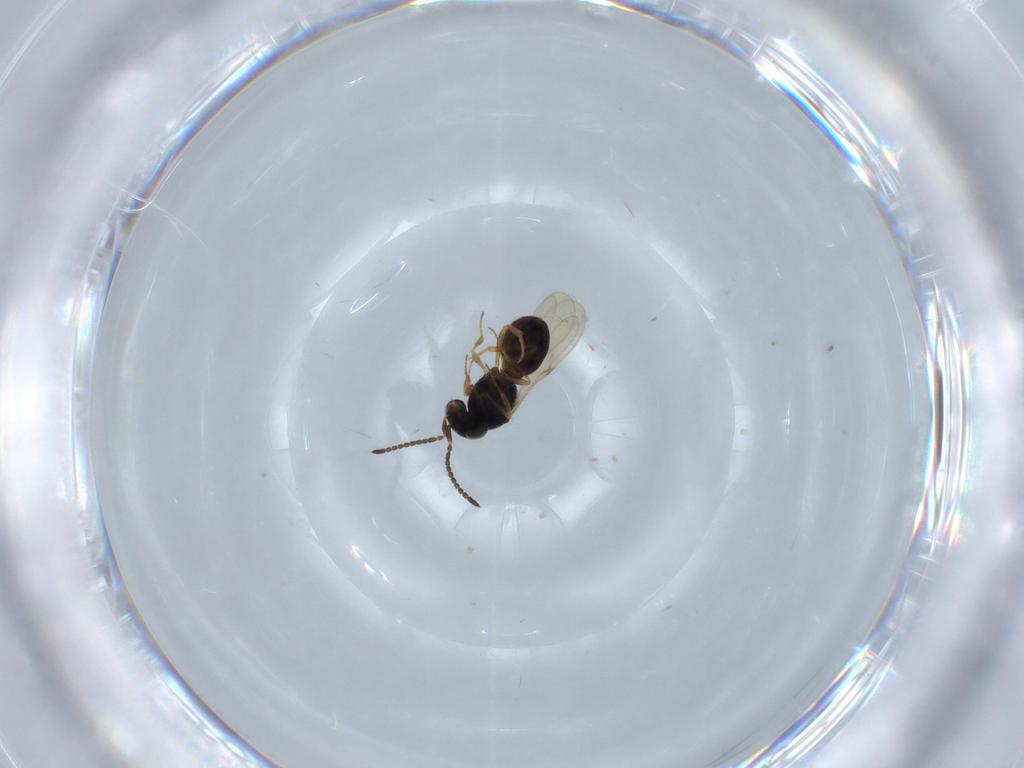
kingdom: Animalia
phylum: Arthropoda
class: Insecta
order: Hymenoptera
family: Scelionidae
